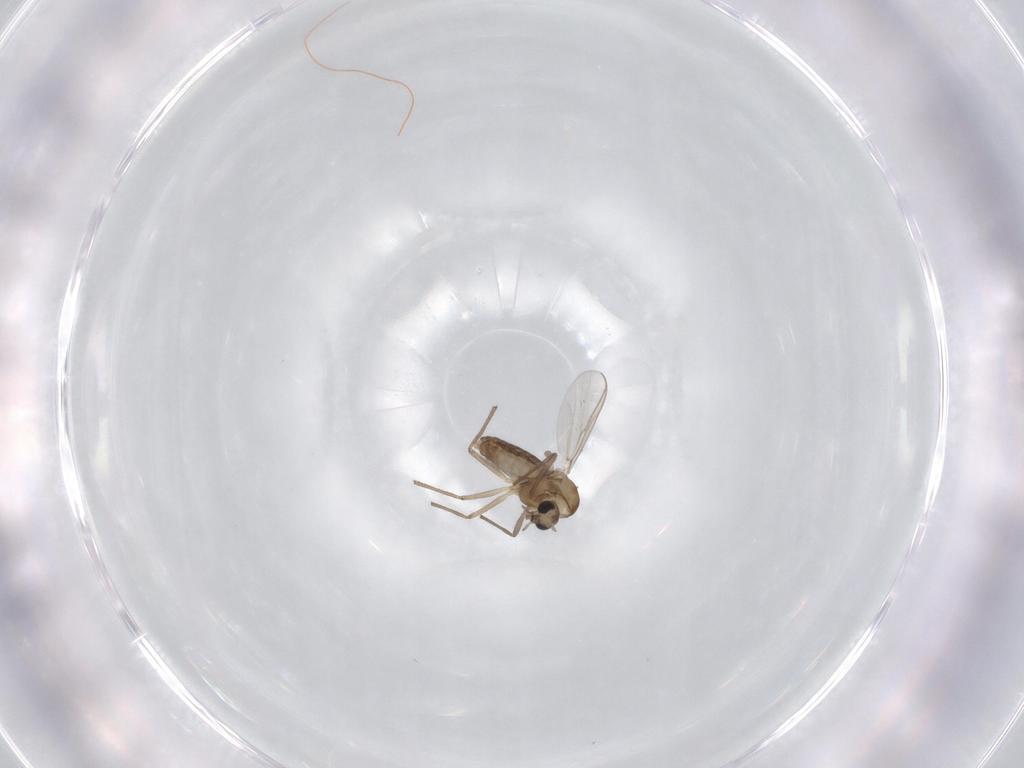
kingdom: Animalia
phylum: Arthropoda
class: Insecta
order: Diptera
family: Chironomidae
